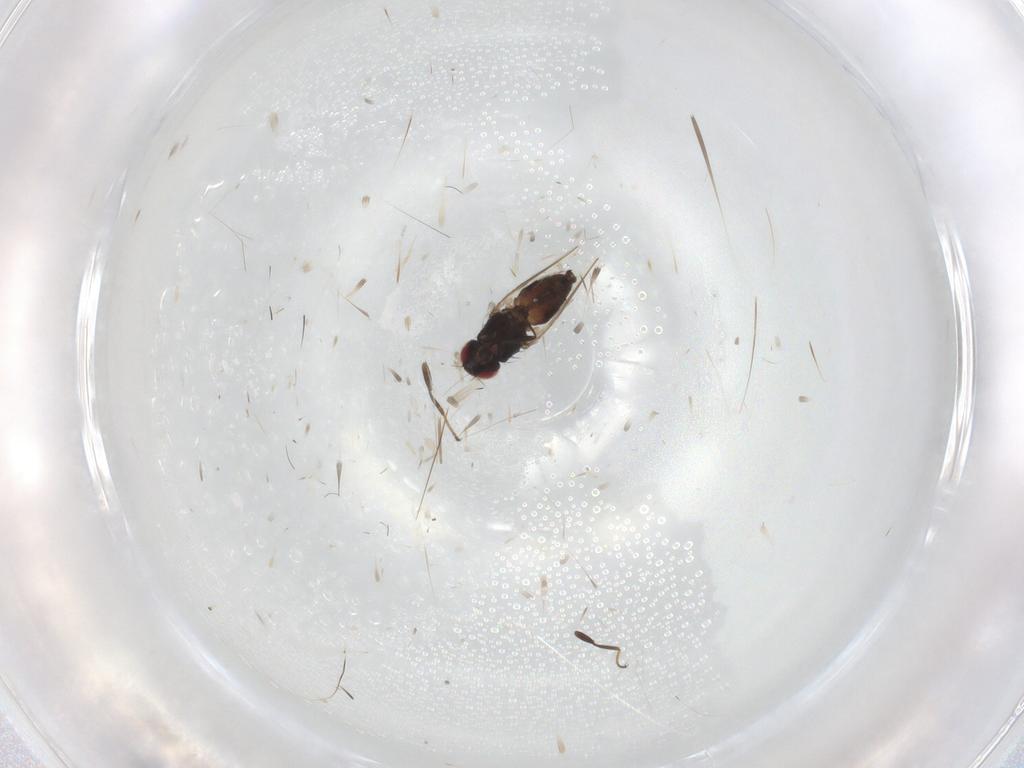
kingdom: Animalia
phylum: Arthropoda
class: Insecta
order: Diptera
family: Carnidae
